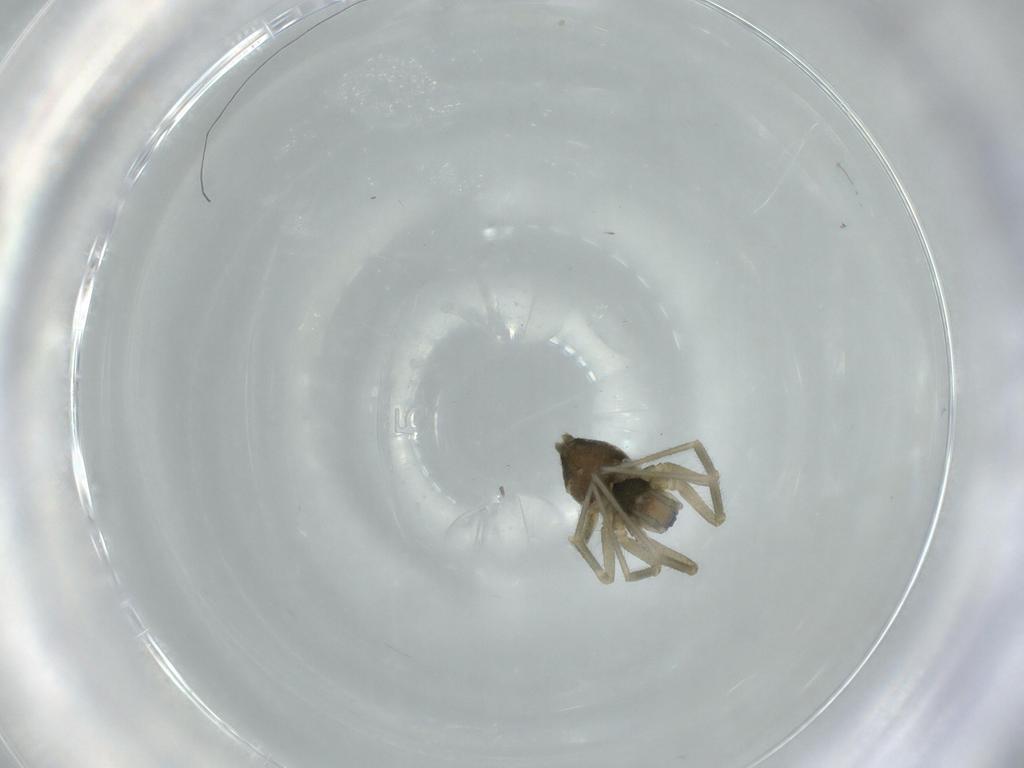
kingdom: Animalia
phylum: Arthropoda
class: Arachnida
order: Araneae
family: Linyphiidae
